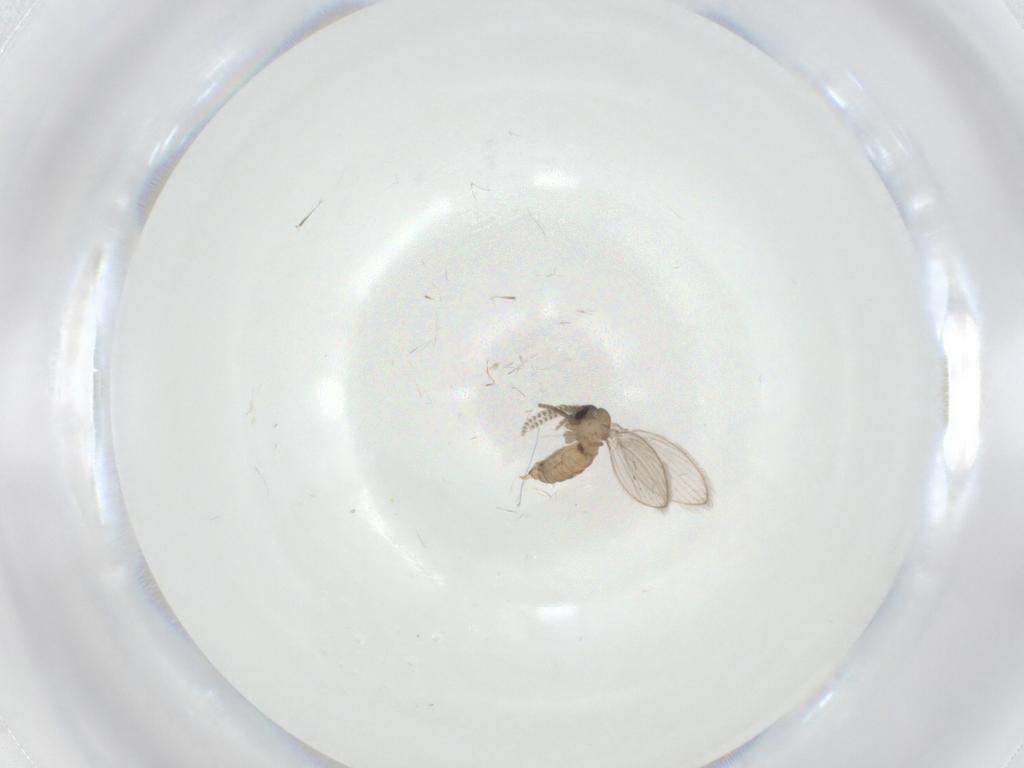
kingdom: Animalia
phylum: Arthropoda
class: Insecta
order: Diptera
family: Psychodidae
